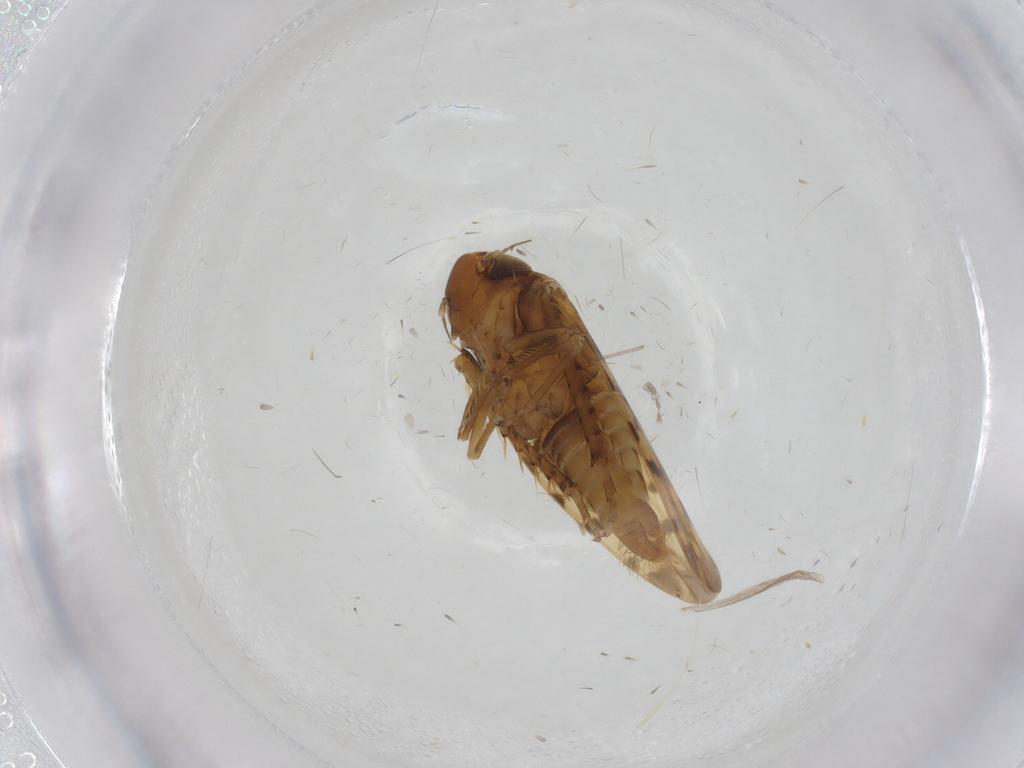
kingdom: Animalia
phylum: Arthropoda
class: Insecta
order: Hemiptera
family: Cicadellidae
